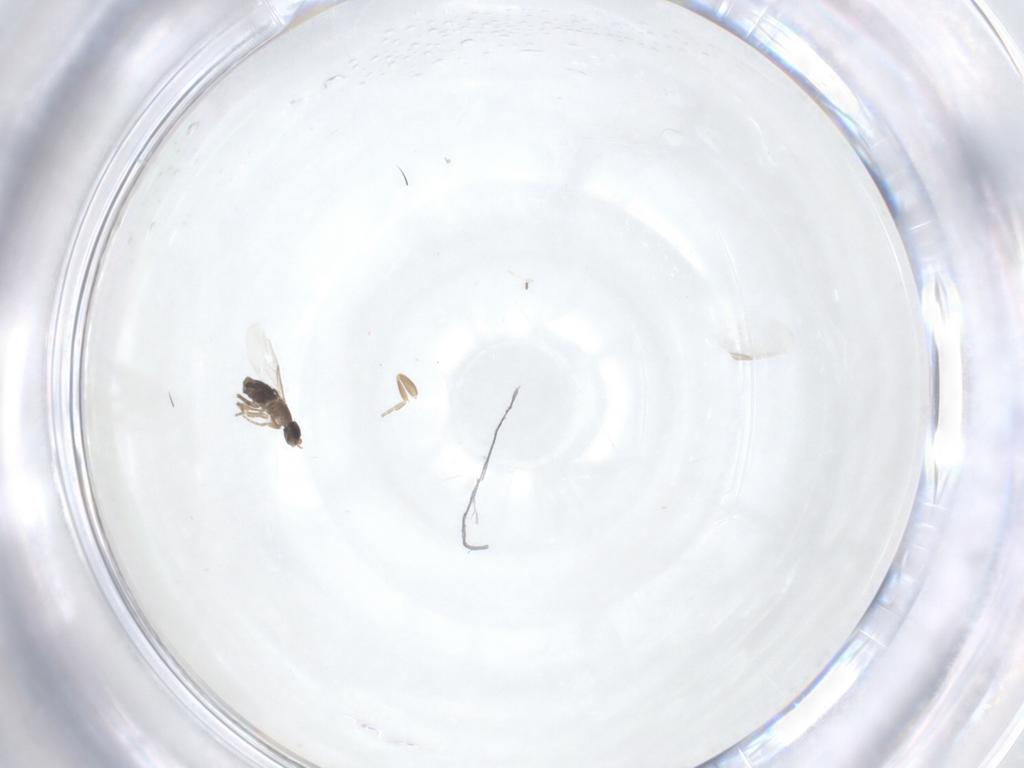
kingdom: Animalia
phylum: Arthropoda
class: Insecta
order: Diptera
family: Phoridae
